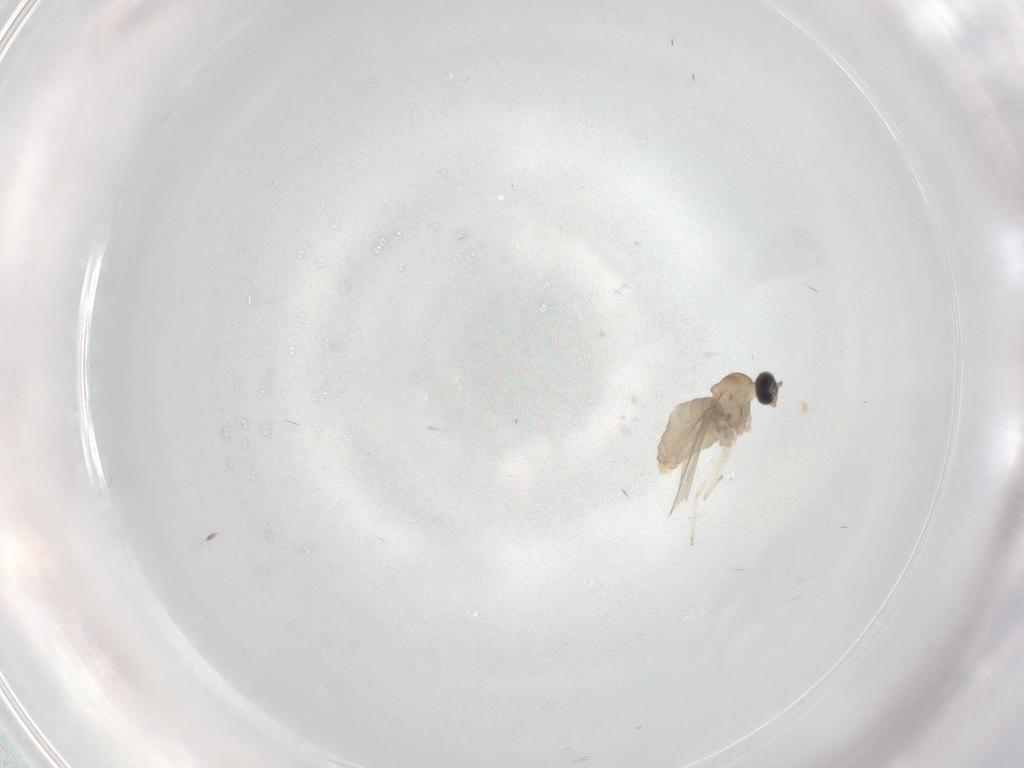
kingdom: Animalia
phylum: Arthropoda
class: Insecta
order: Diptera
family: Cecidomyiidae
